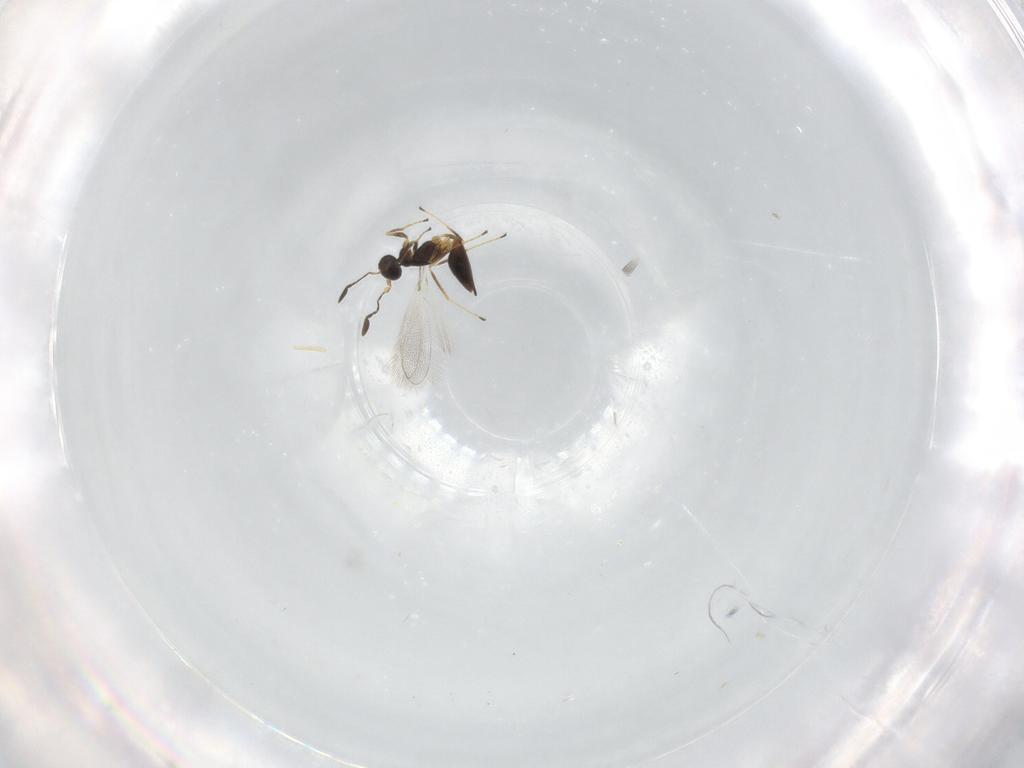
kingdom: Animalia
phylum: Arthropoda
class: Insecta
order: Hymenoptera
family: Mymaridae
